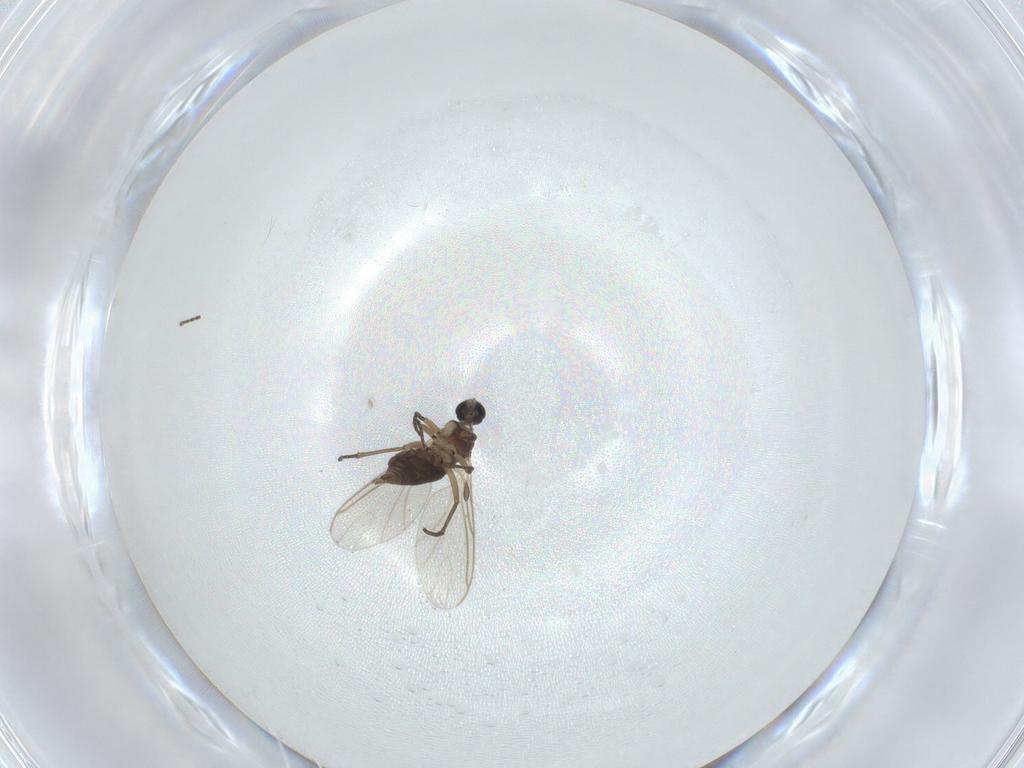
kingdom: Animalia
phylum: Arthropoda
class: Insecta
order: Diptera
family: Sciaridae
